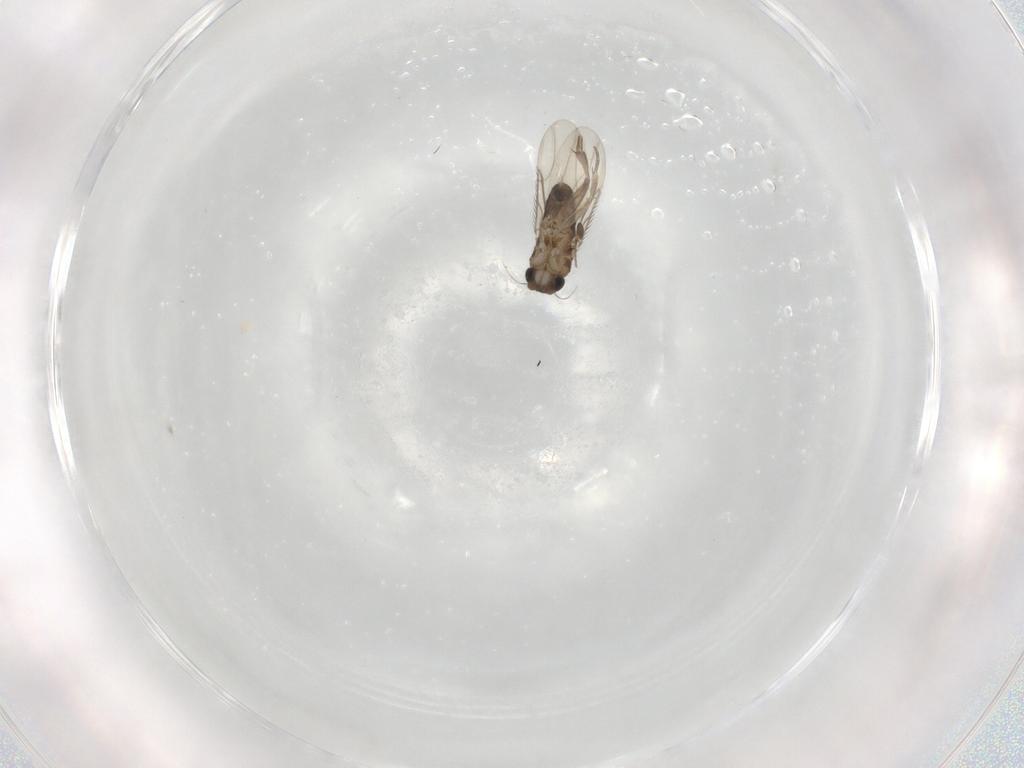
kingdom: Animalia
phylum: Arthropoda
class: Insecta
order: Diptera
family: Phoridae
